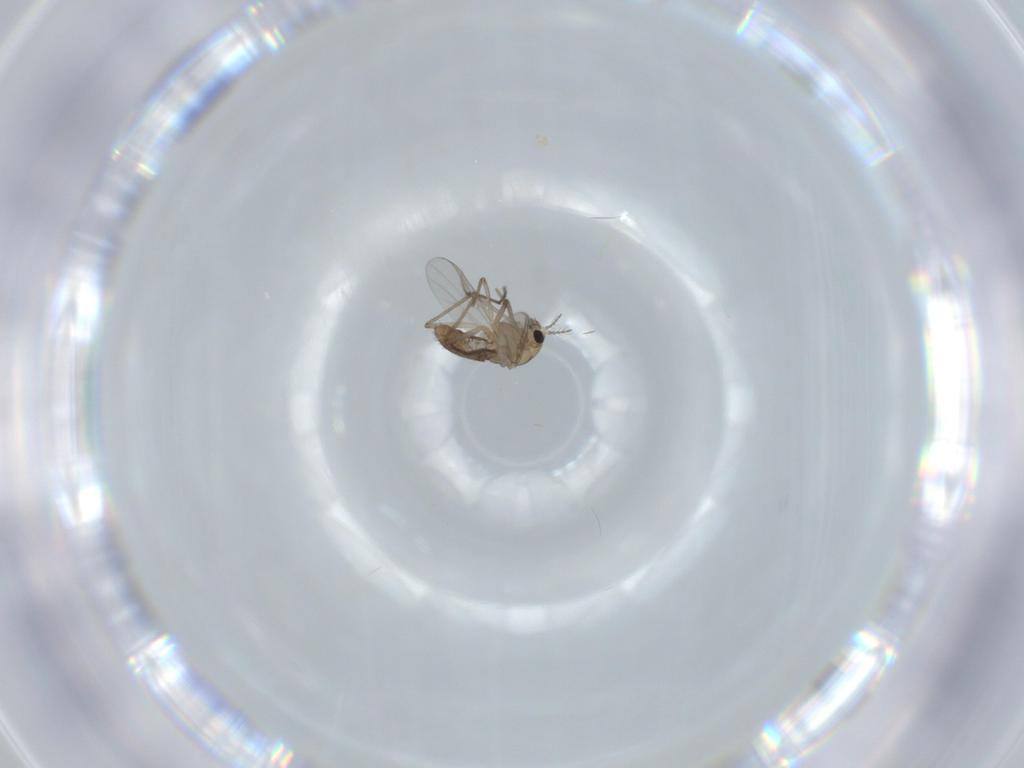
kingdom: Animalia
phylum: Arthropoda
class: Insecta
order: Diptera
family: Chironomidae
